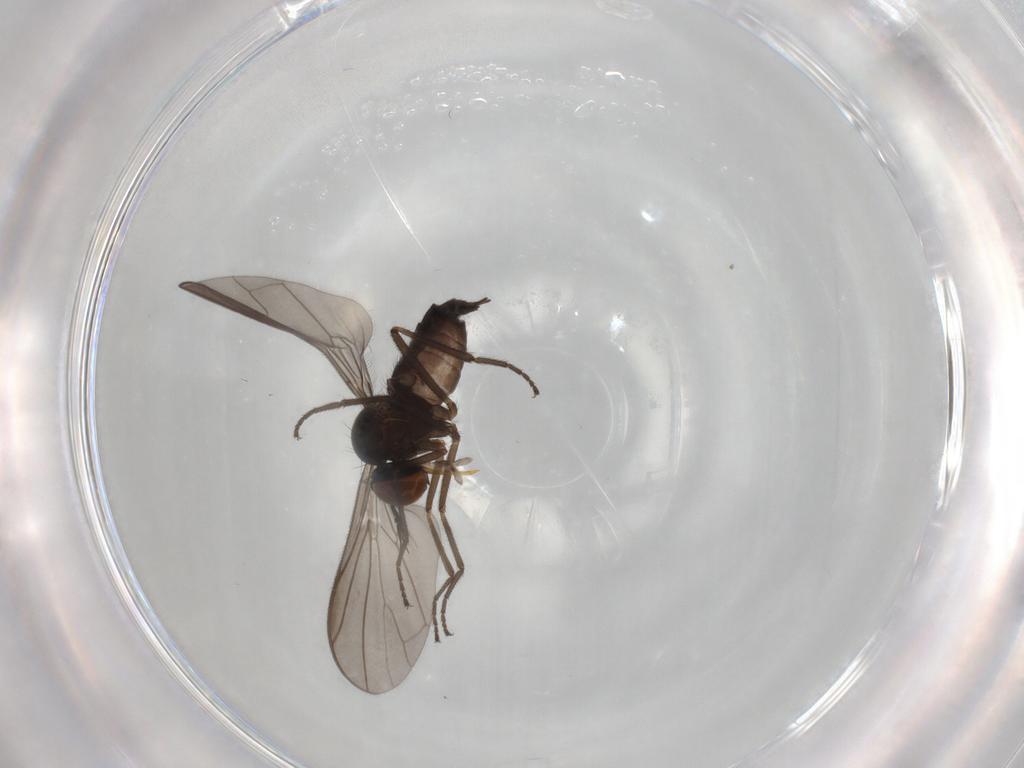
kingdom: Animalia
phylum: Arthropoda
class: Insecta
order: Diptera
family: Empididae
